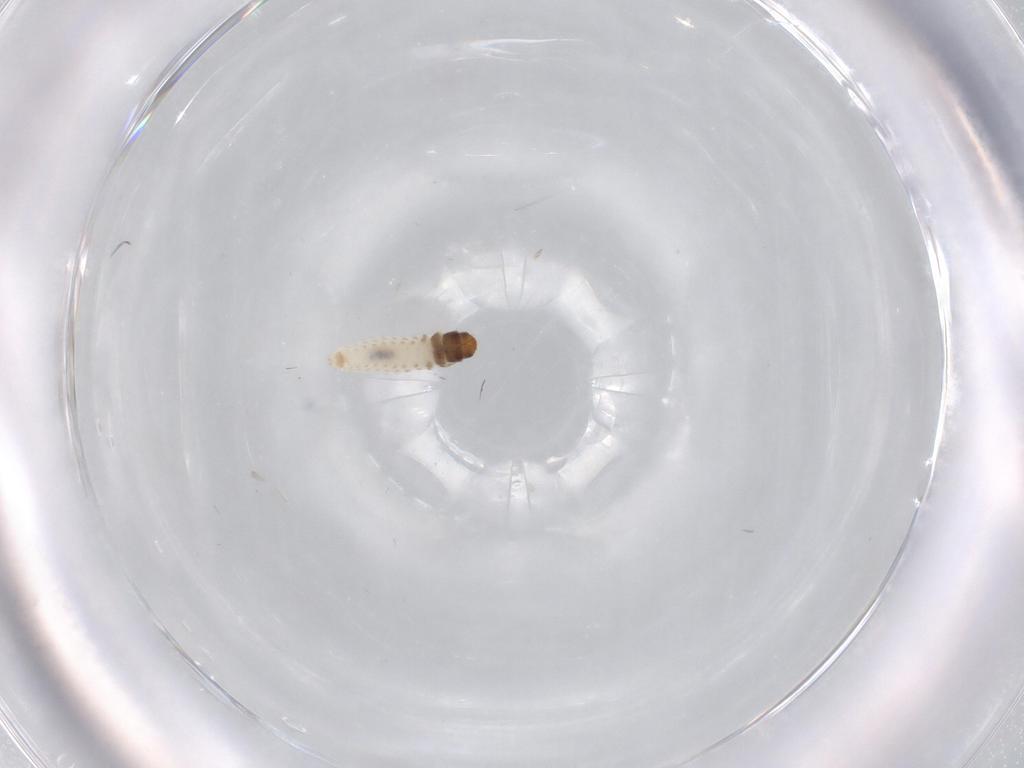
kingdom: Animalia
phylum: Arthropoda
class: Insecta
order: Lepidoptera
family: Psychidae
